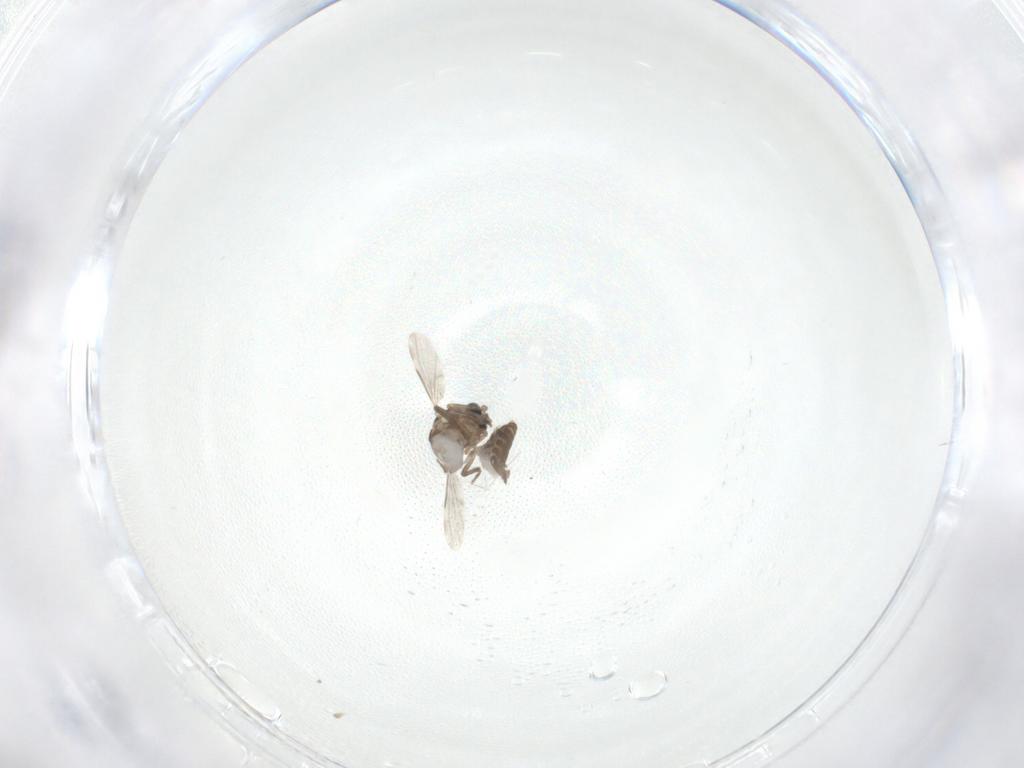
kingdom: Animalia
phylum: Arthropoda
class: Insecta
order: Diptera
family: Ceratopogonidae
